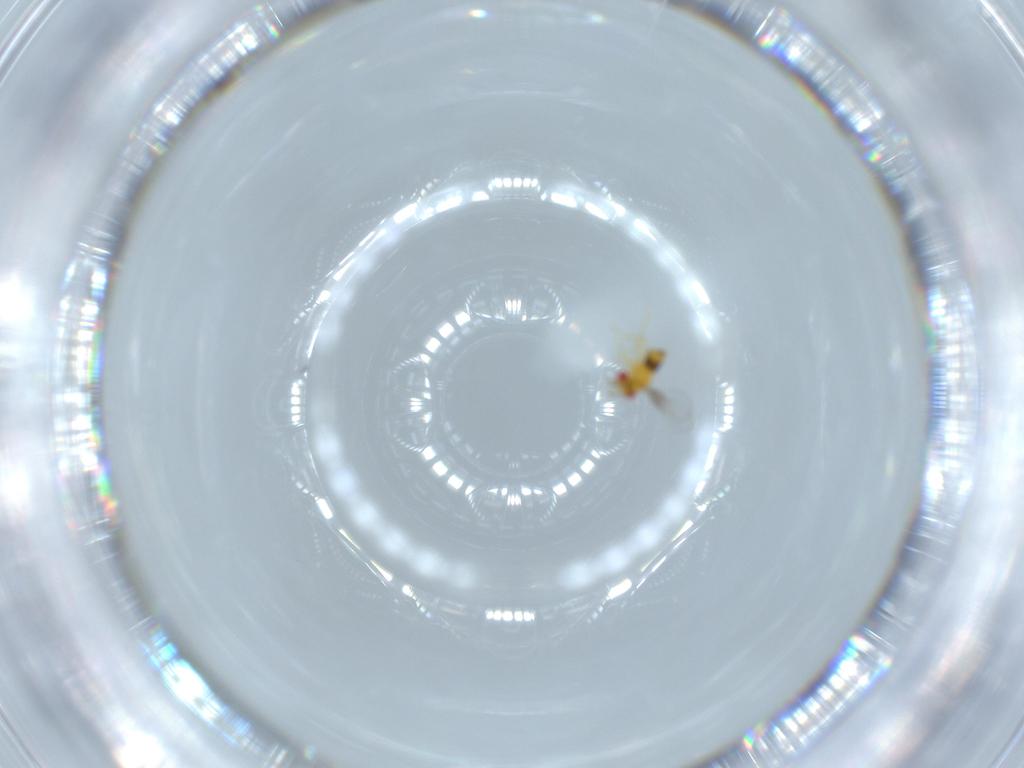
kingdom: Animalia
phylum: Arthropoda
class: Insecta
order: Hymenoptera
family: Trichogrammatidae
